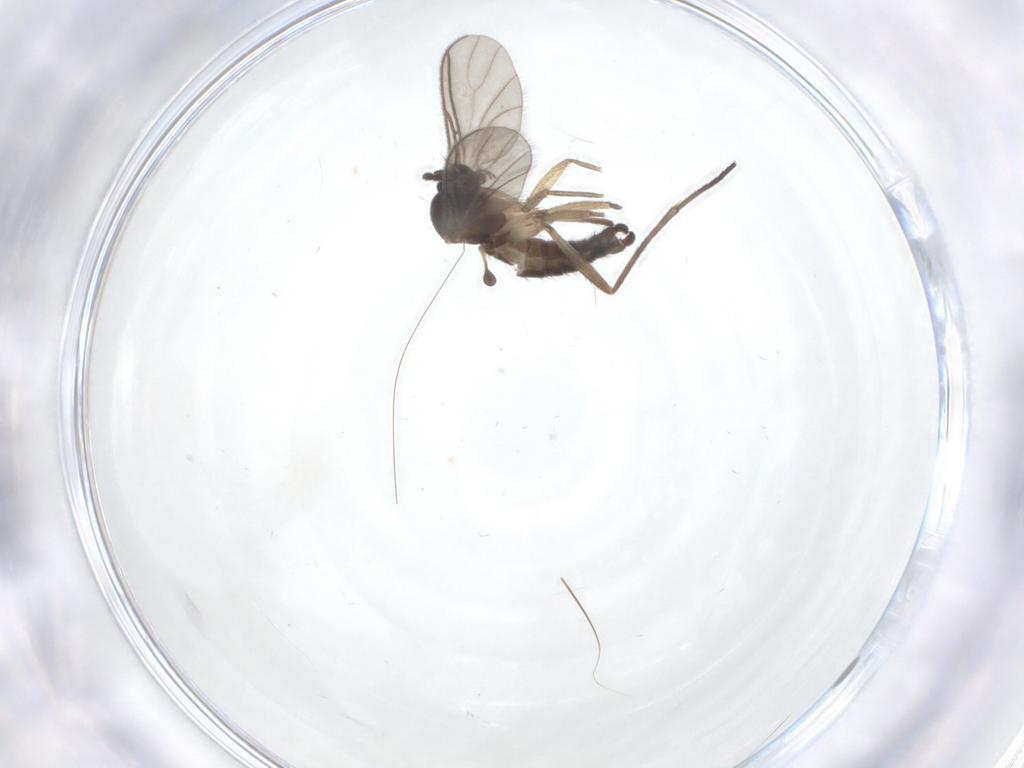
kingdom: Animalia
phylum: Arthropoda
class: Insecta
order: Diptera
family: Sciaridae
